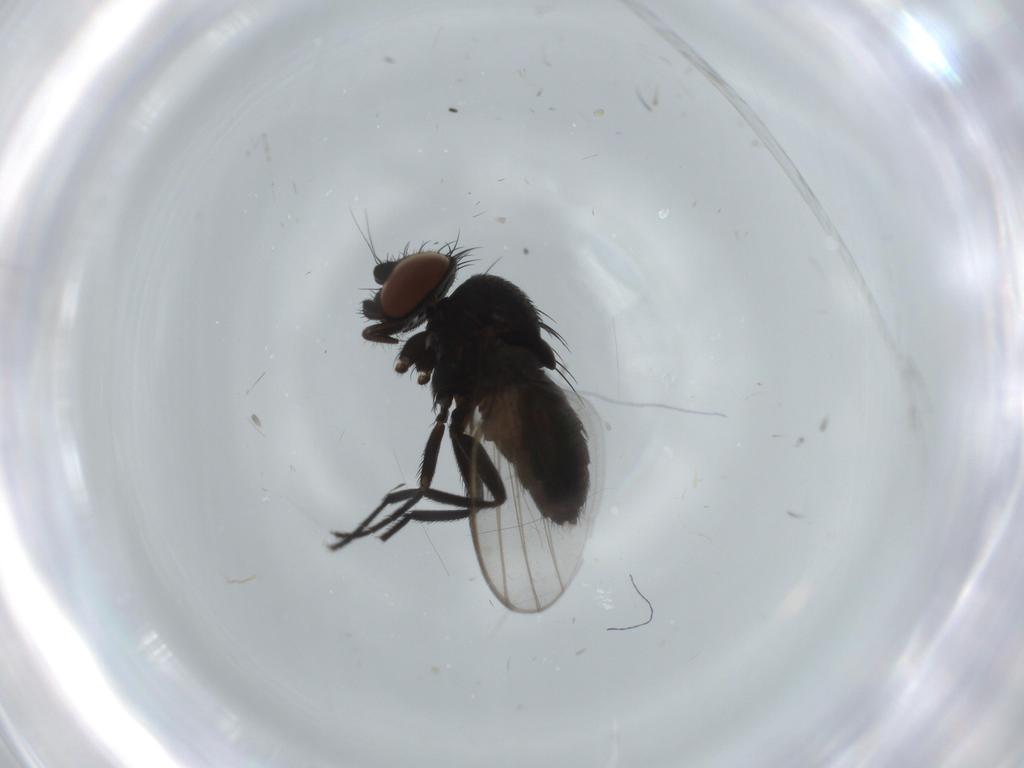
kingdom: Animalia
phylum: Arthropoda
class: Insecta
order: Diptera
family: Milichiidae
